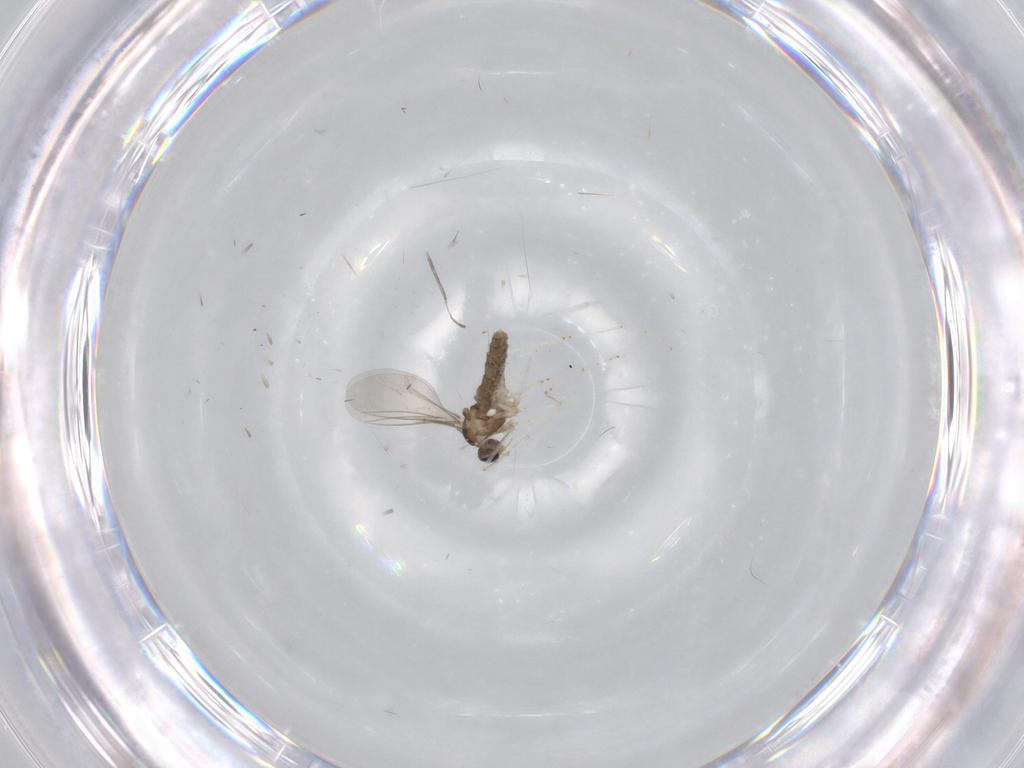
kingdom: Animalia
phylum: Arthropoda
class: Insecta
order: Diptera
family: Cecidomyiidae
